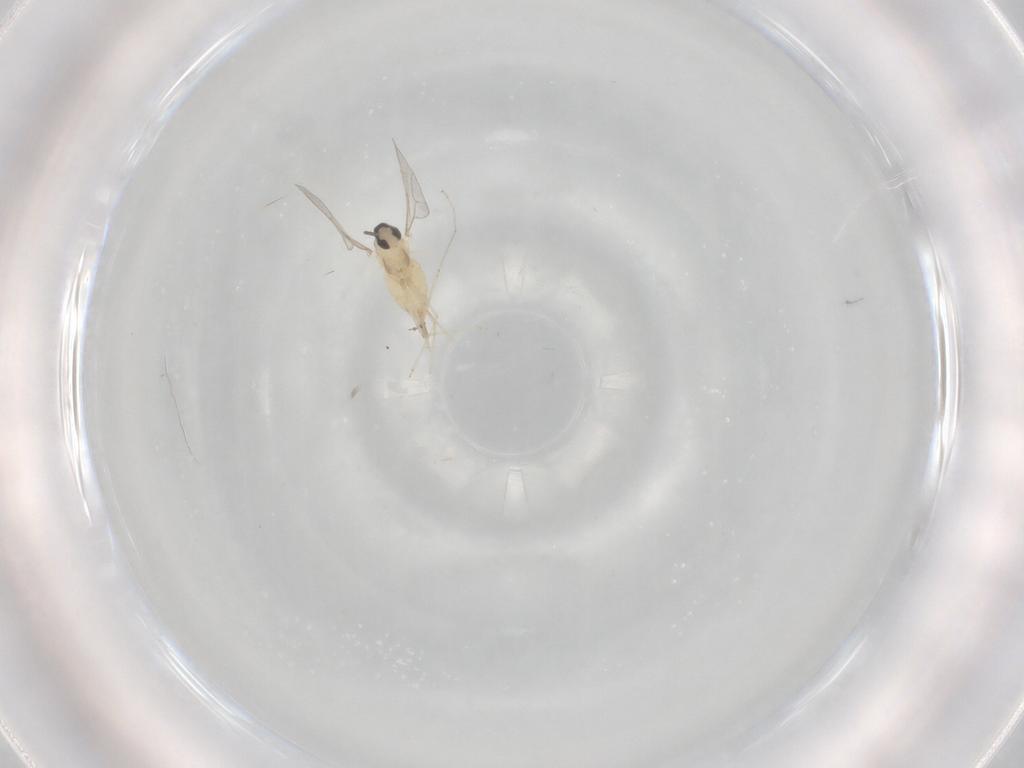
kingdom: Animalia
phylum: Arthropoda
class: Insecta
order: Diptera
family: Cecidomyiidae
